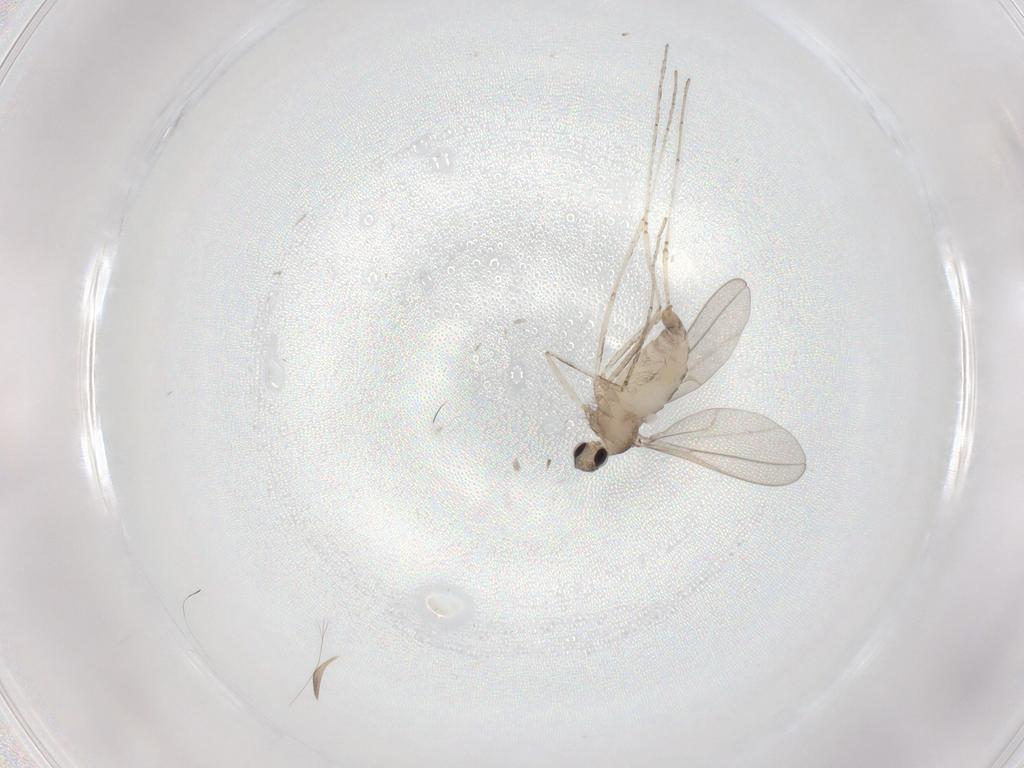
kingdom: Animalia
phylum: Arthropoda
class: Insecta
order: Diptera
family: Cecidomyiidae
